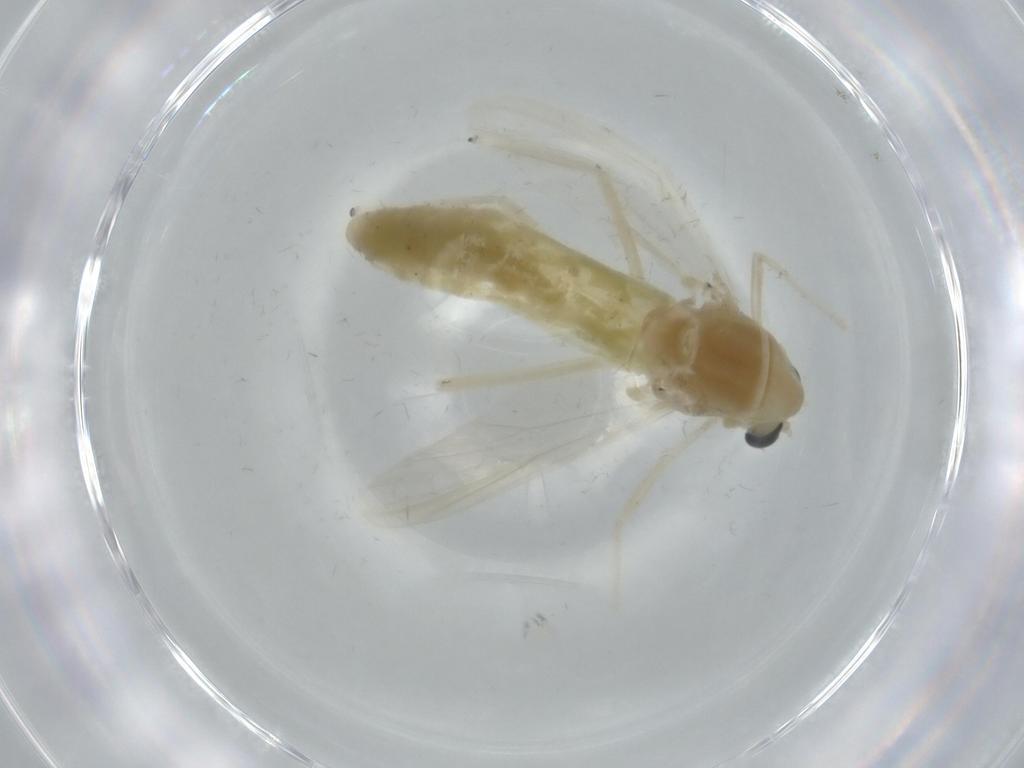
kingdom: Animalia
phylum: Arthropoda
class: Insecta
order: Diptera
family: Chironomidae
